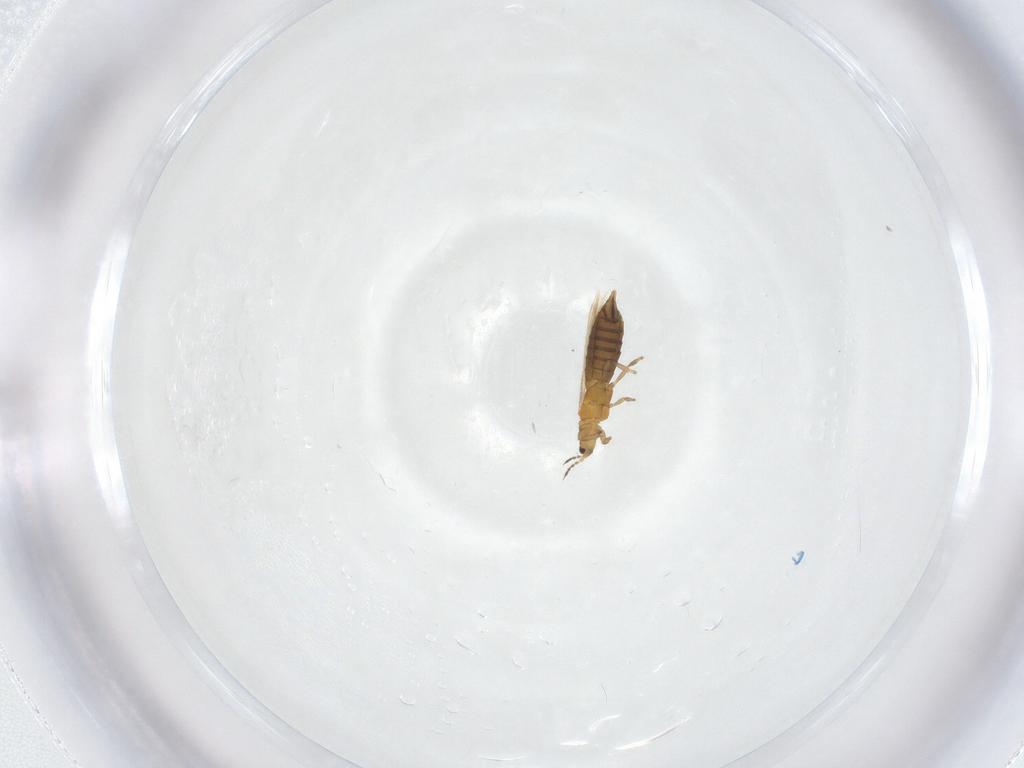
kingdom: Animalia
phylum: Arthropoda
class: Insecta
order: Thysanoptera
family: Thripidae
